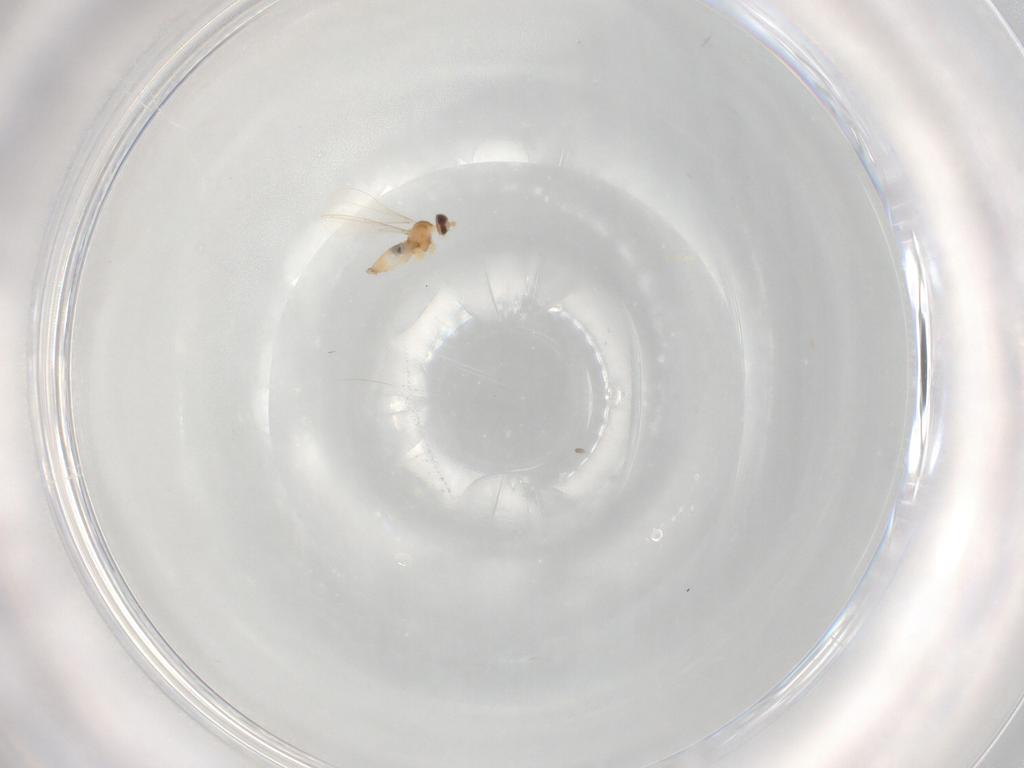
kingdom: Animalia
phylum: Arthropoda
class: Insecta
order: Diptera
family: Cecidomyiidae
